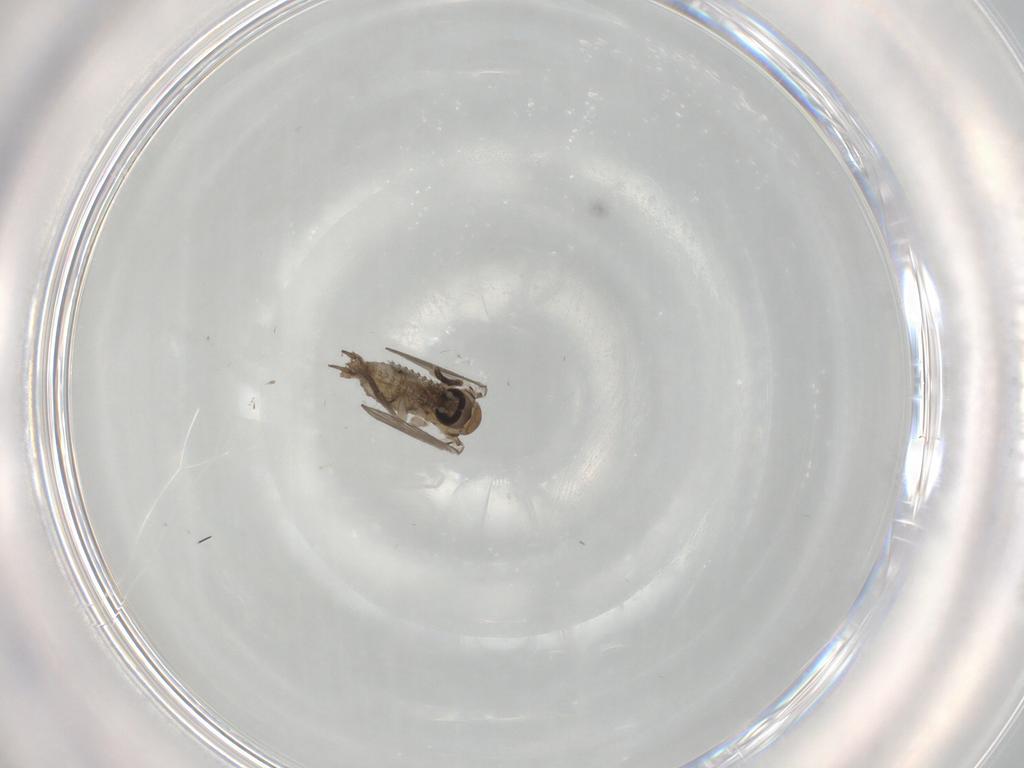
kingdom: Animalia
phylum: Arthropoda
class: Insecta
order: Diptera
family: Psychodidae
